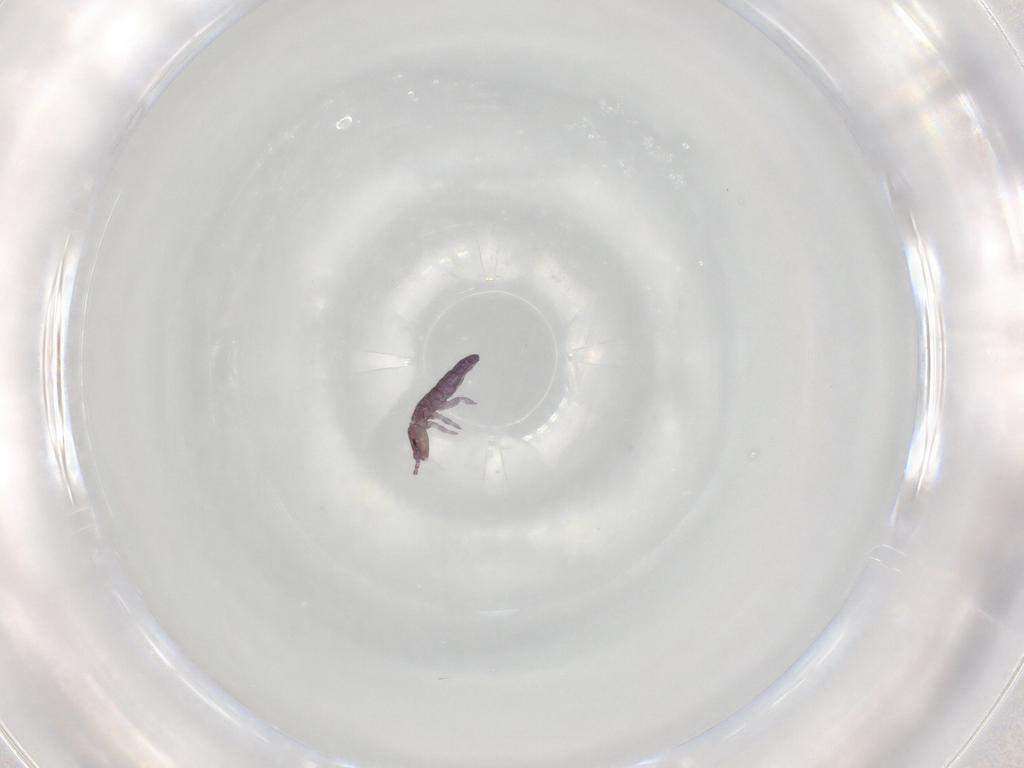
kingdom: Animalia
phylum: Arthropoda
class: Collembola
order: Entomobryomorpha
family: Isotomidae
